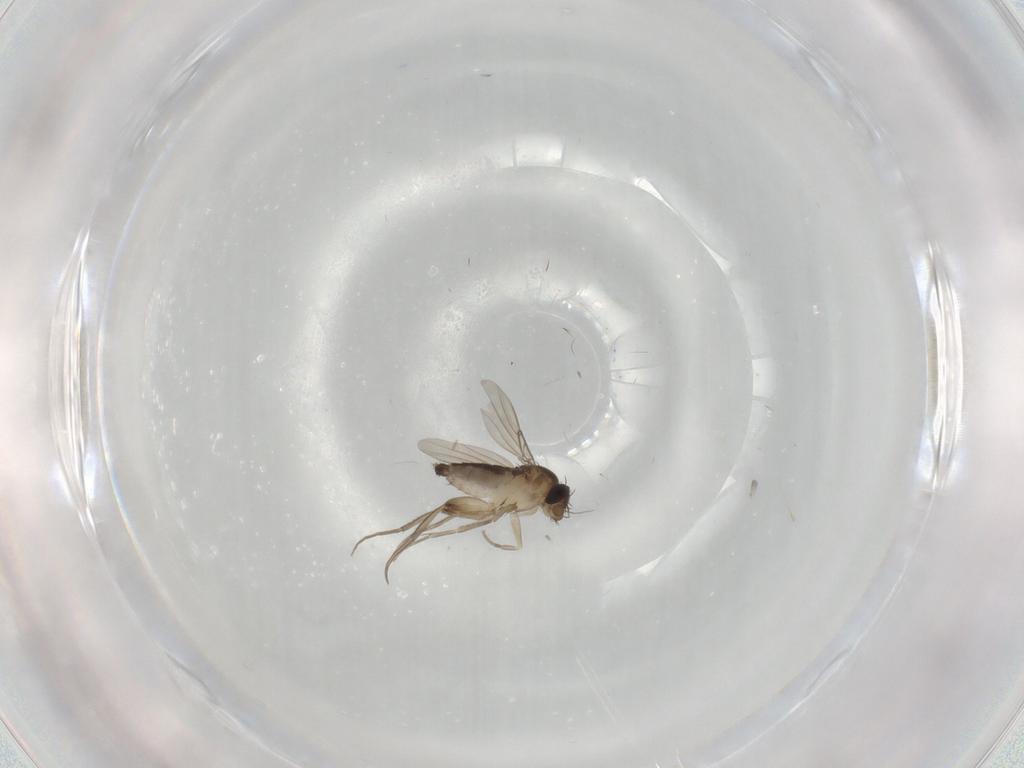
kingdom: Animalia
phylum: Arthropoda
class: Insecta
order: Diptera
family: Phoridae
